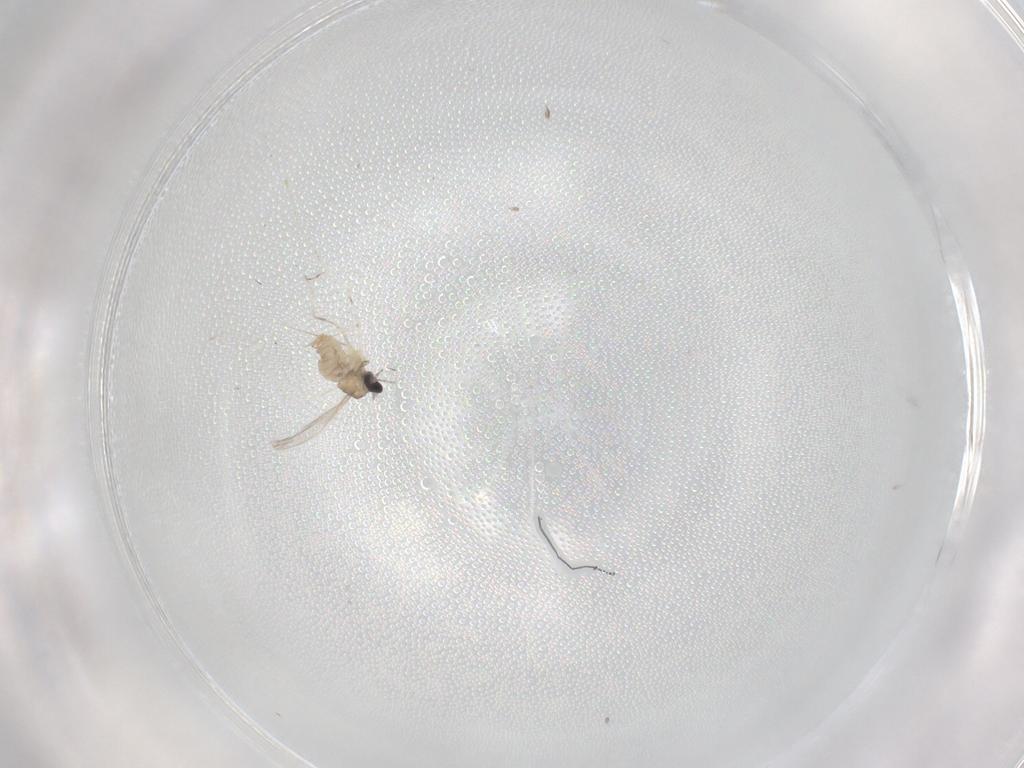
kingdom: Animalia
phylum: Arthropoda
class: Insecta
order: Diptera
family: Cecidomyiidae
